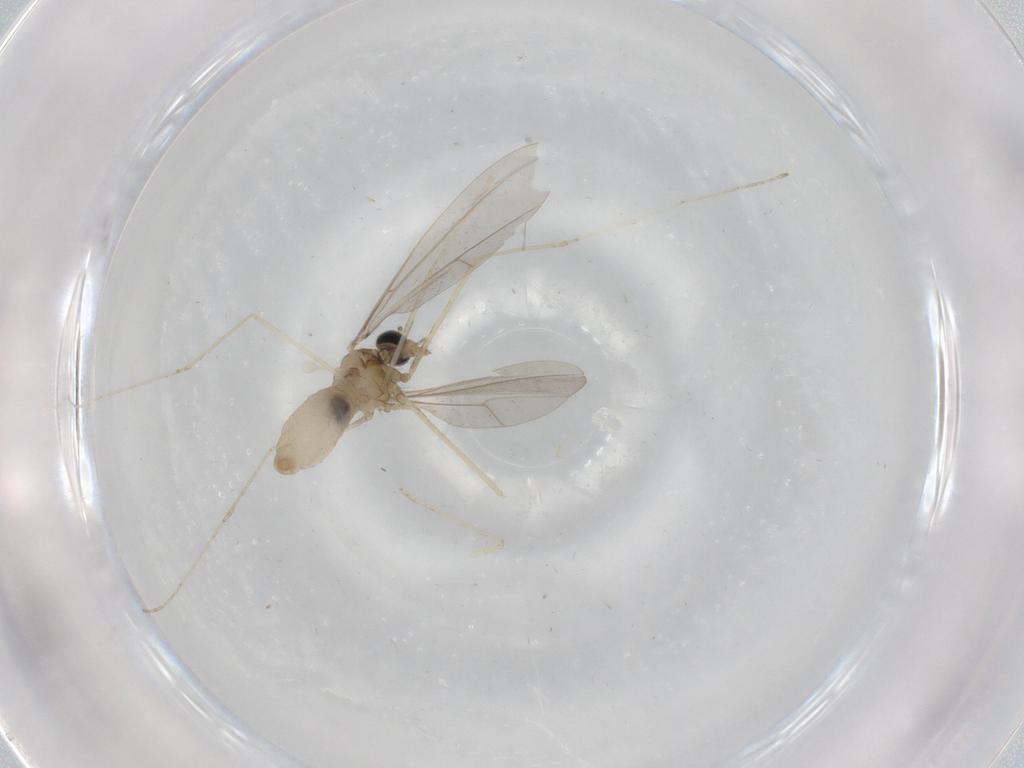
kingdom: Animalia
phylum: Arthropoda
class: Insecta
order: Diptera
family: Cecidomyiidae
